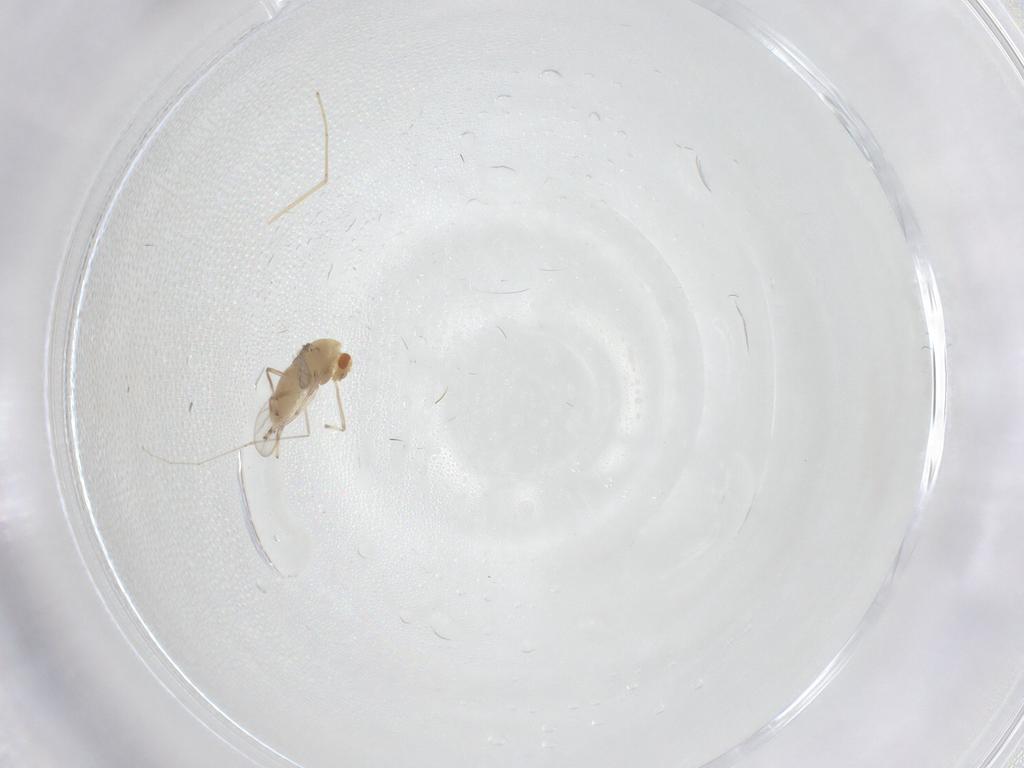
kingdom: Animalia
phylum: Arthropoda
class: Insecta
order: Diptera
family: Chironomidae
